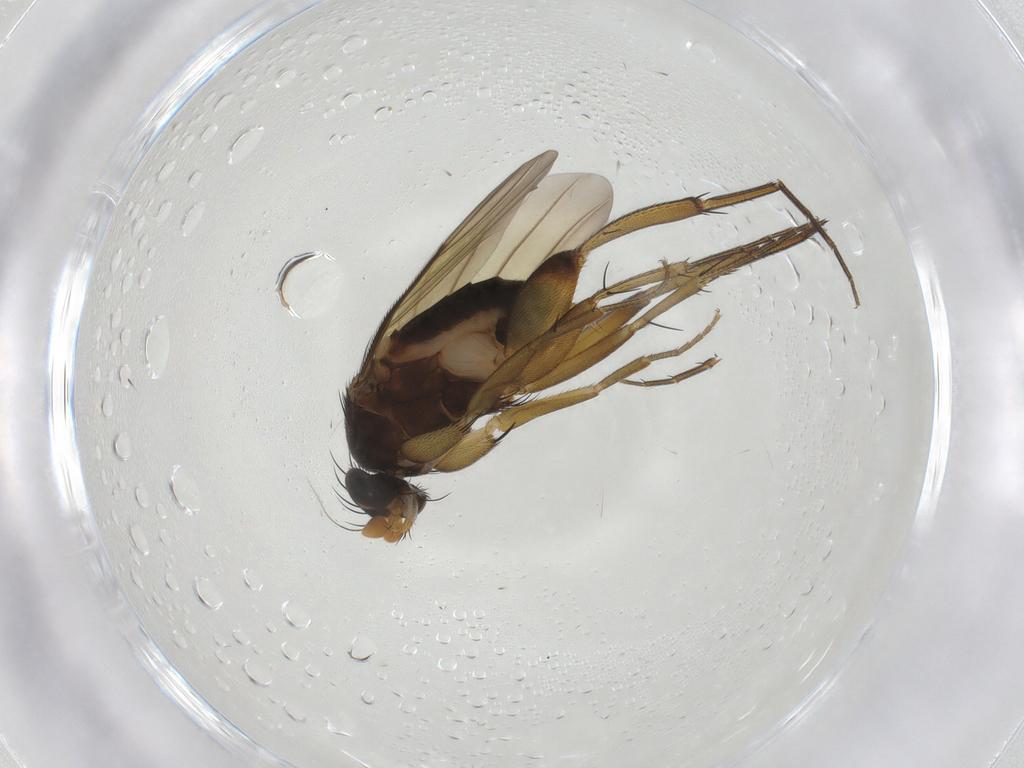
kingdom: Animalia
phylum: Arthropoda
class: Insecta
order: Diptera
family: Phoridae
